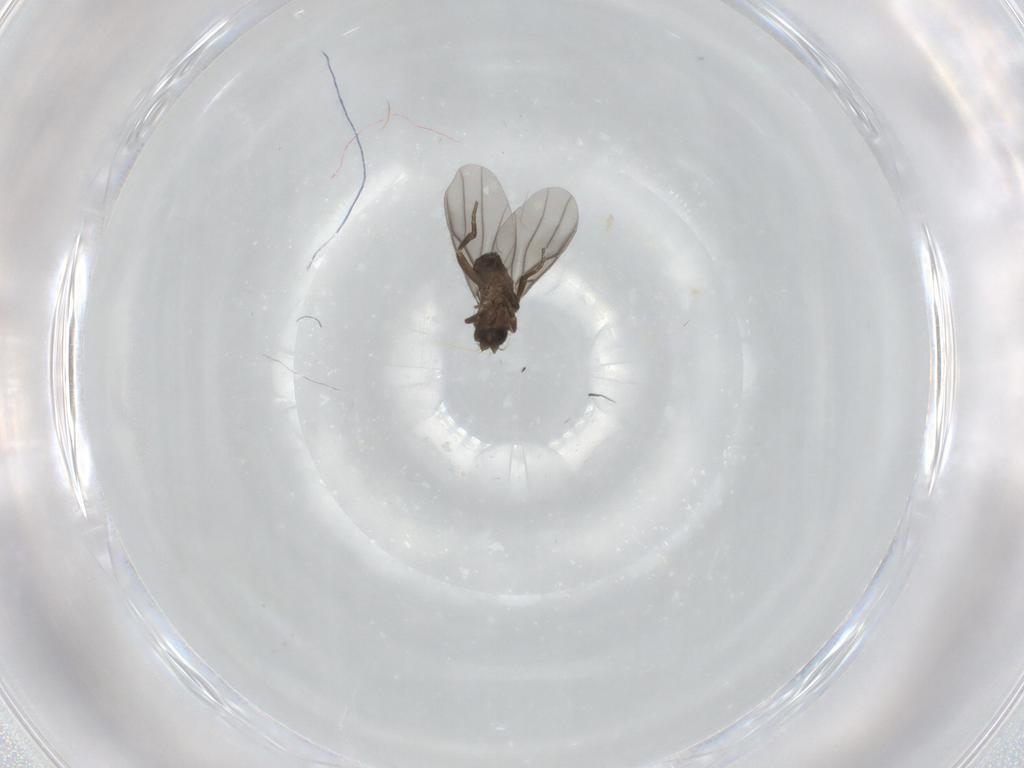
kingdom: Animalia
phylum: Arthropoda
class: Insecta
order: Diptera
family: Phoridae
